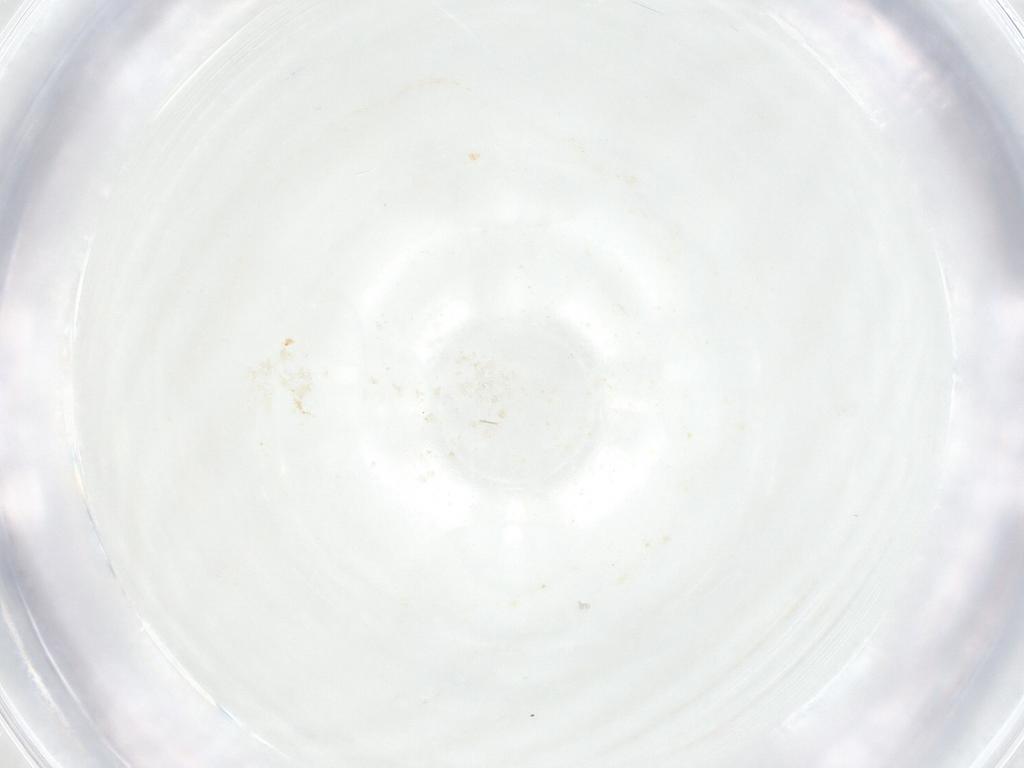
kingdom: Animalia
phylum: Arthropoda
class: Insecta
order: Hymenoptera
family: Eulophidae
